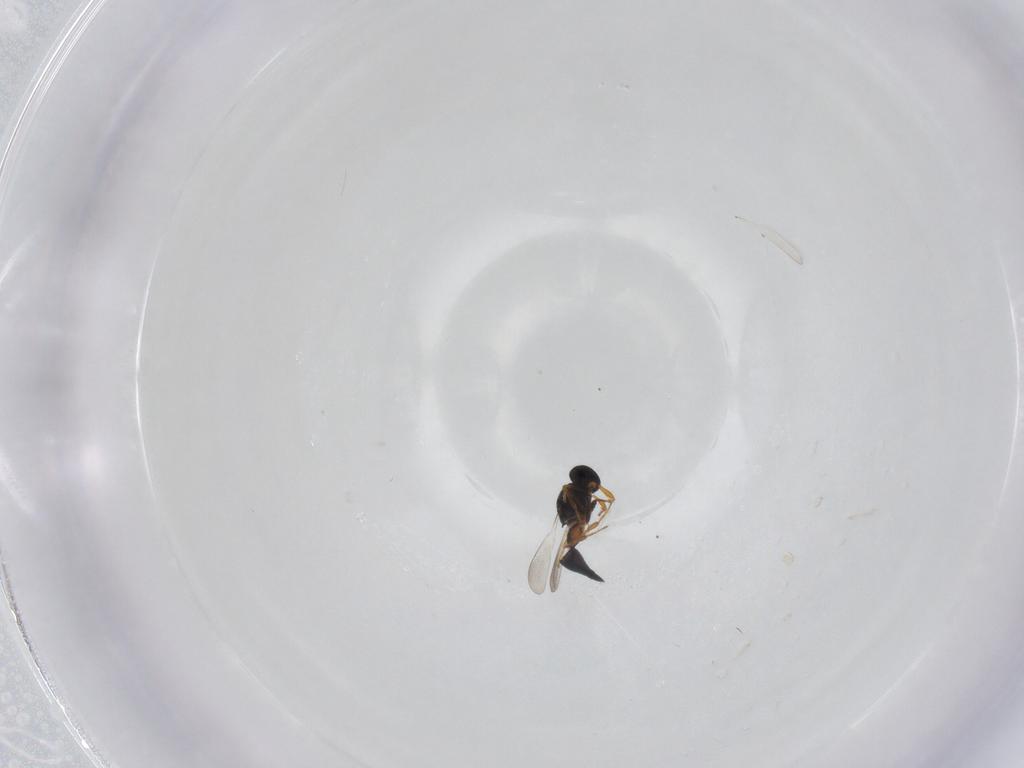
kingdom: Animalia
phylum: Arthropoda
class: Insecta
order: Hymenoptera
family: Platygastridae
